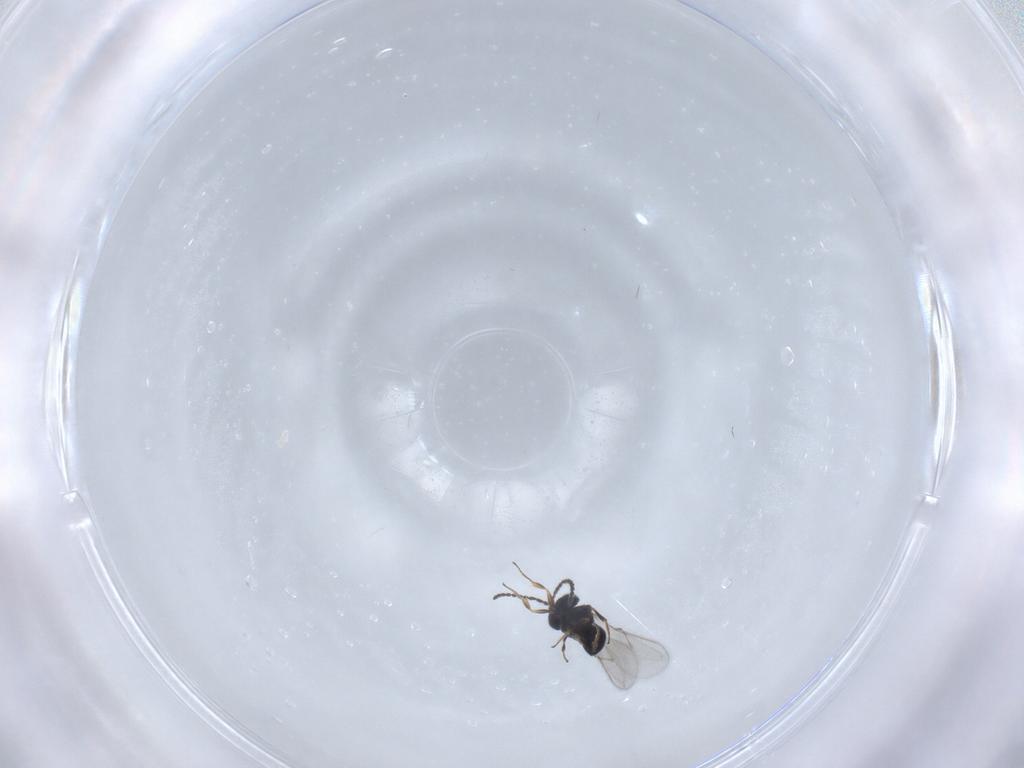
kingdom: Animalia
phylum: Arthropoda
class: Insecta
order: Hymenoptera
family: Scelionidae
